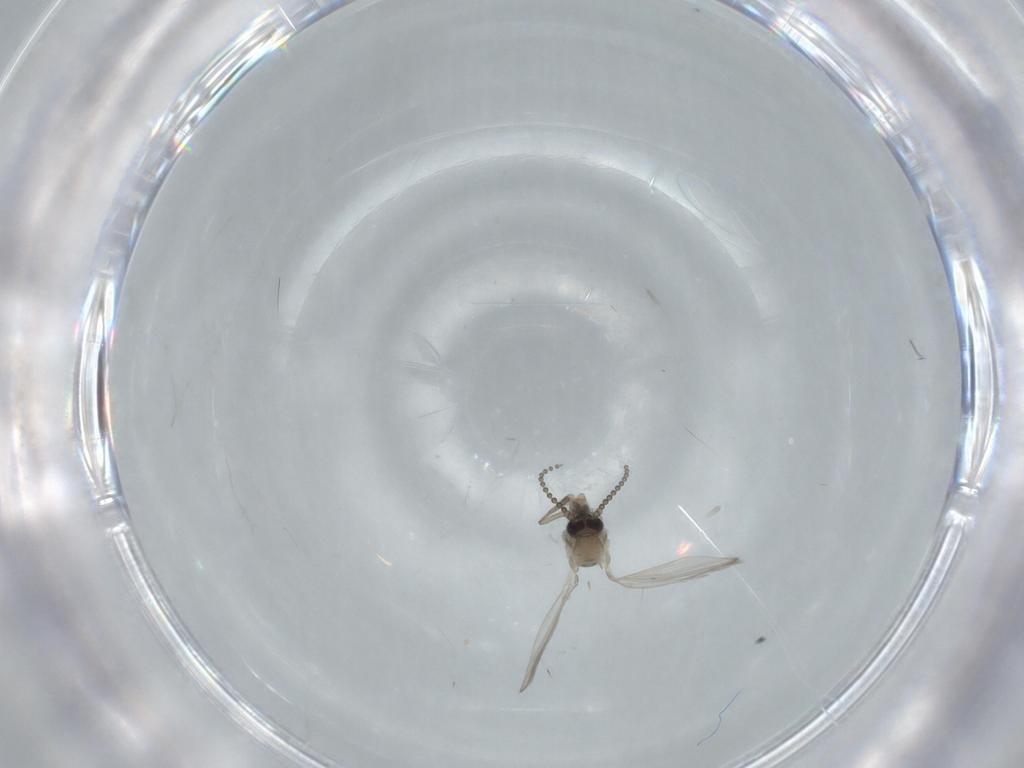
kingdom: Animalia
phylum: Arthropoda
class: Insecta
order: Diptera
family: Psychodidae
